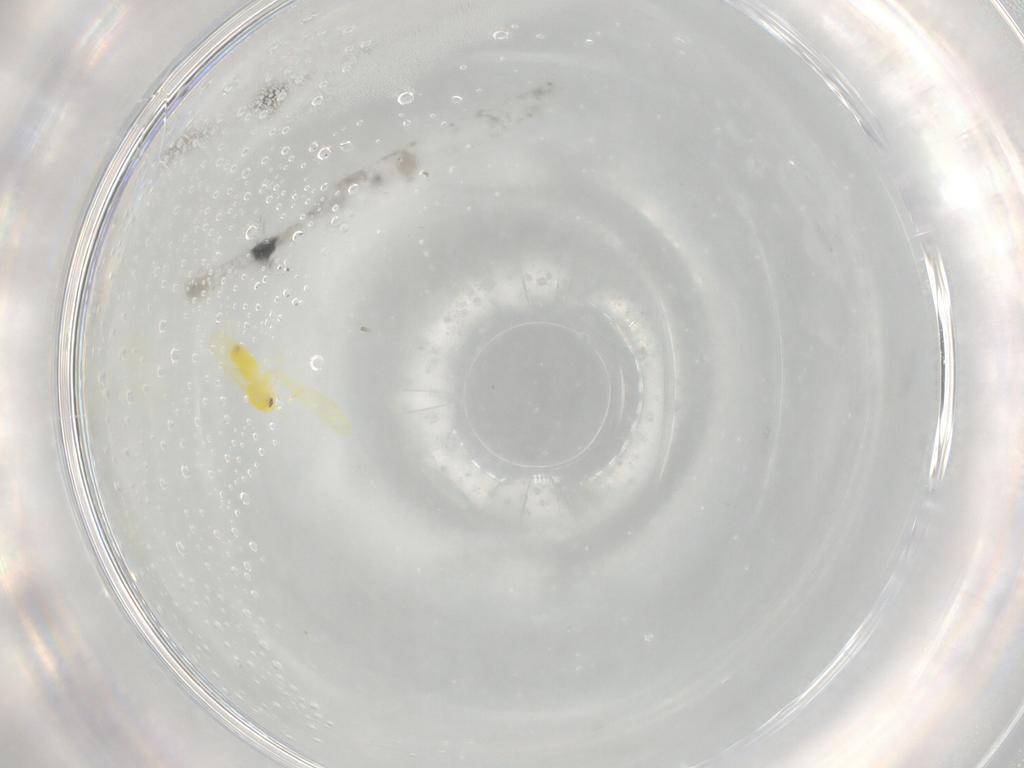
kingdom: Animalia
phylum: Arthropoda
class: Insecta
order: Hemiptera
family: Aleyrodidae
